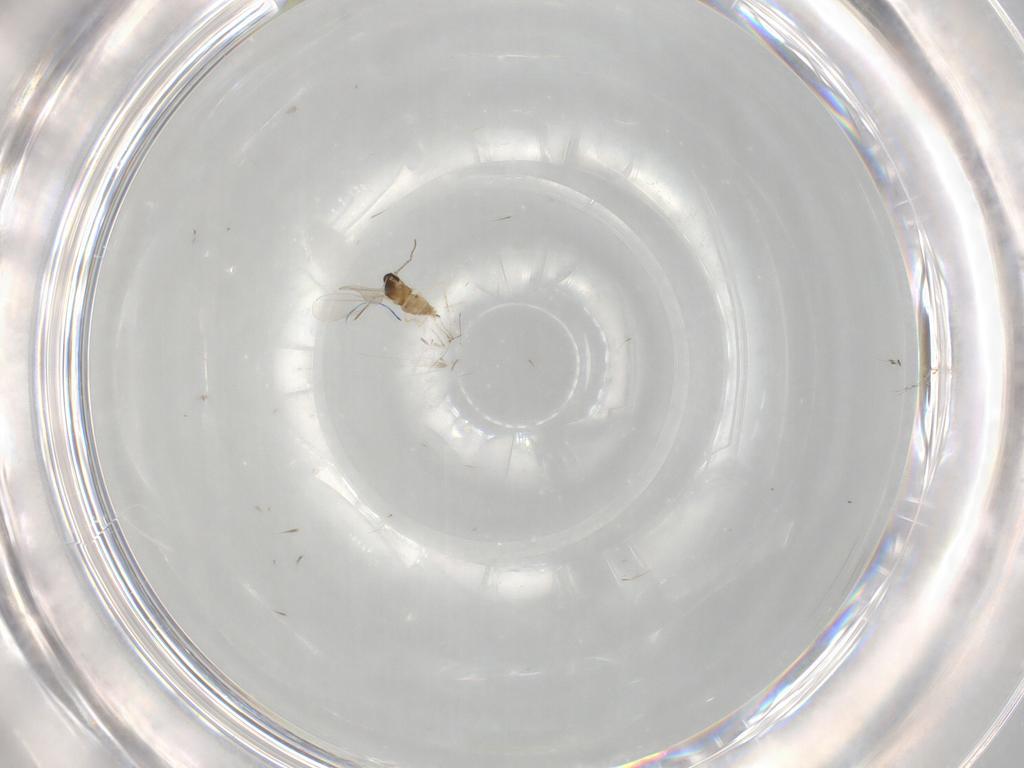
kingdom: Animalia
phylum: Arthropoda
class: Insecta
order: Diptera
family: Cecidomyiidae
